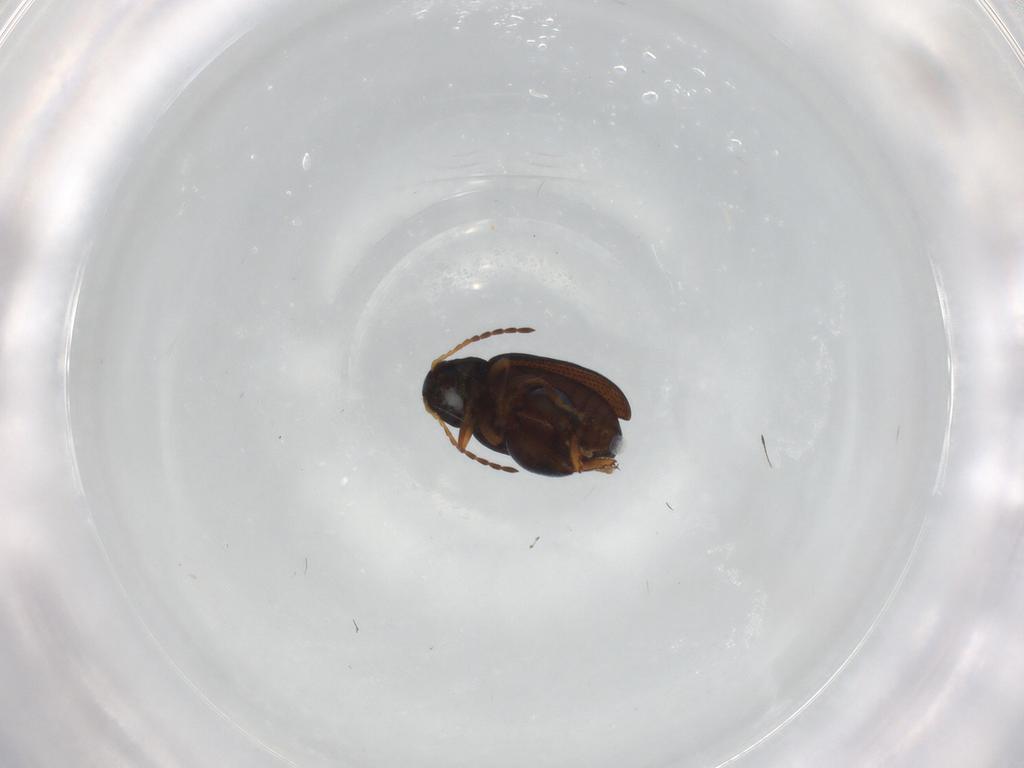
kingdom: Animalia
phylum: Arthropoda
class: Insecta
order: Coleoptera
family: Chrysomelidae
